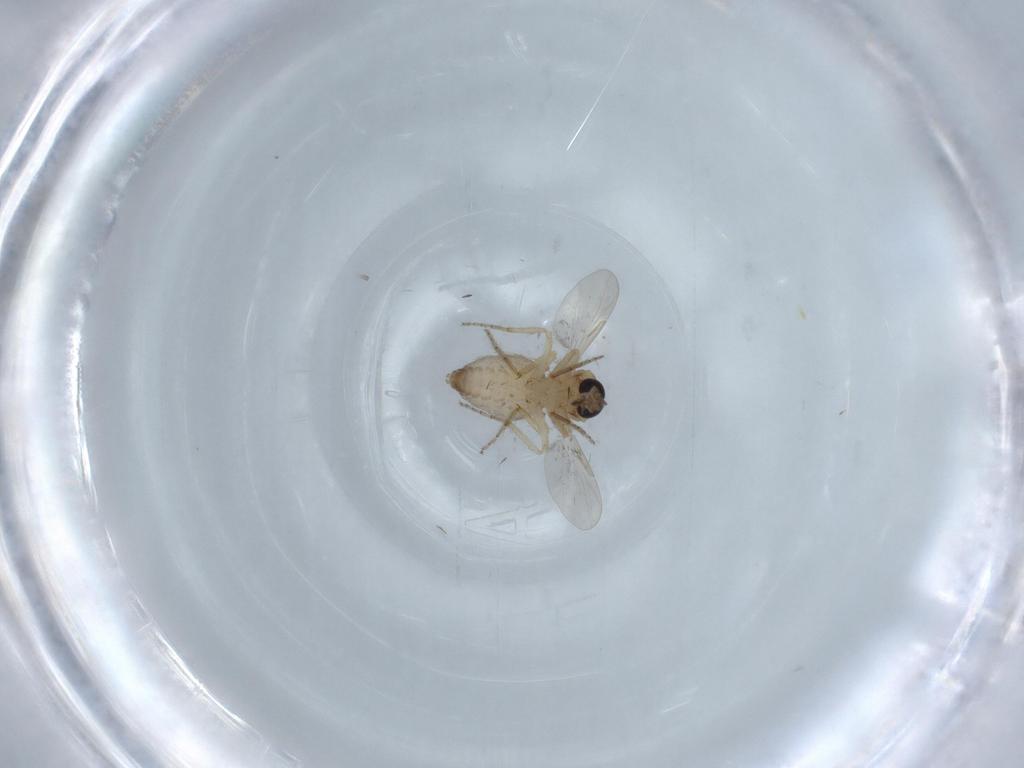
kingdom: Animalia
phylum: Arthropoda
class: Insecta
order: Diptera
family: Ceratopogonidae
